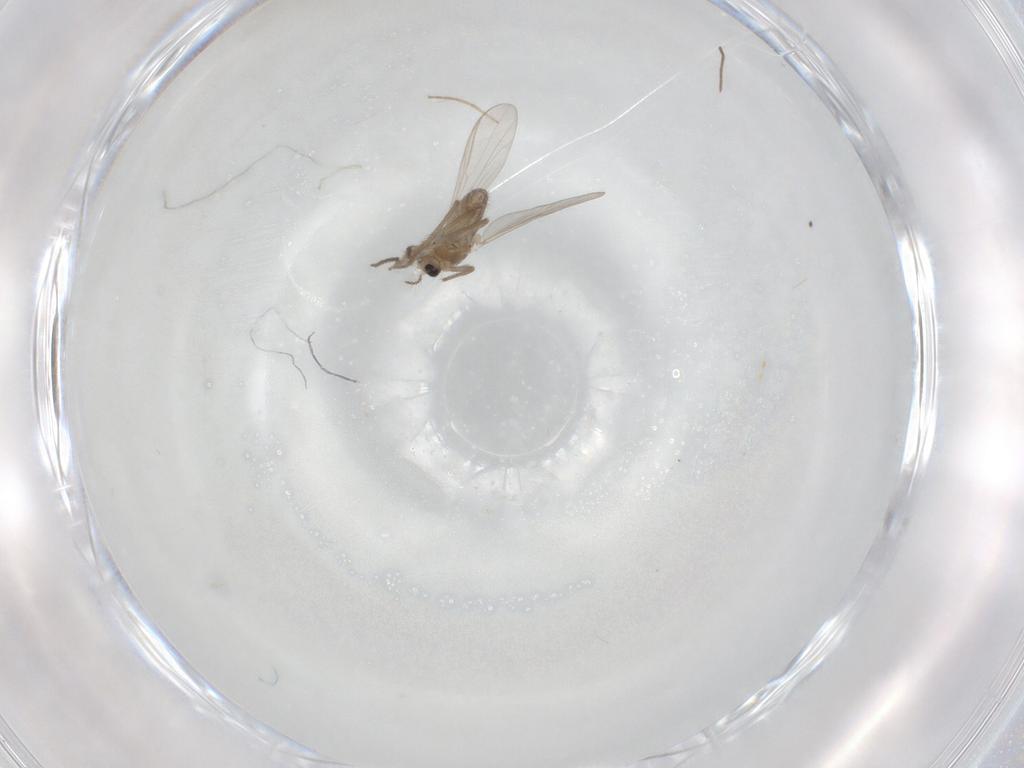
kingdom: Animalia
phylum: Arthropoda
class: Insecta
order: Diptera
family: Chironomidae
